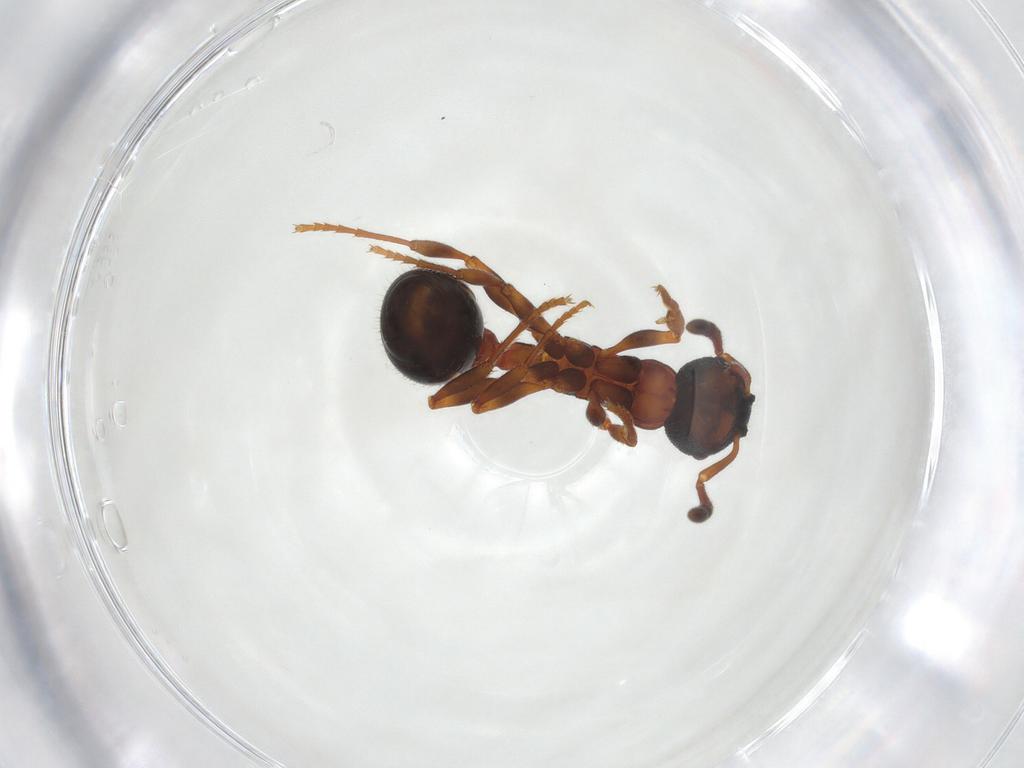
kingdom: Animalia
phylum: Arthropoda
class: Insecta
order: Hymenoptera
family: Formicidae
